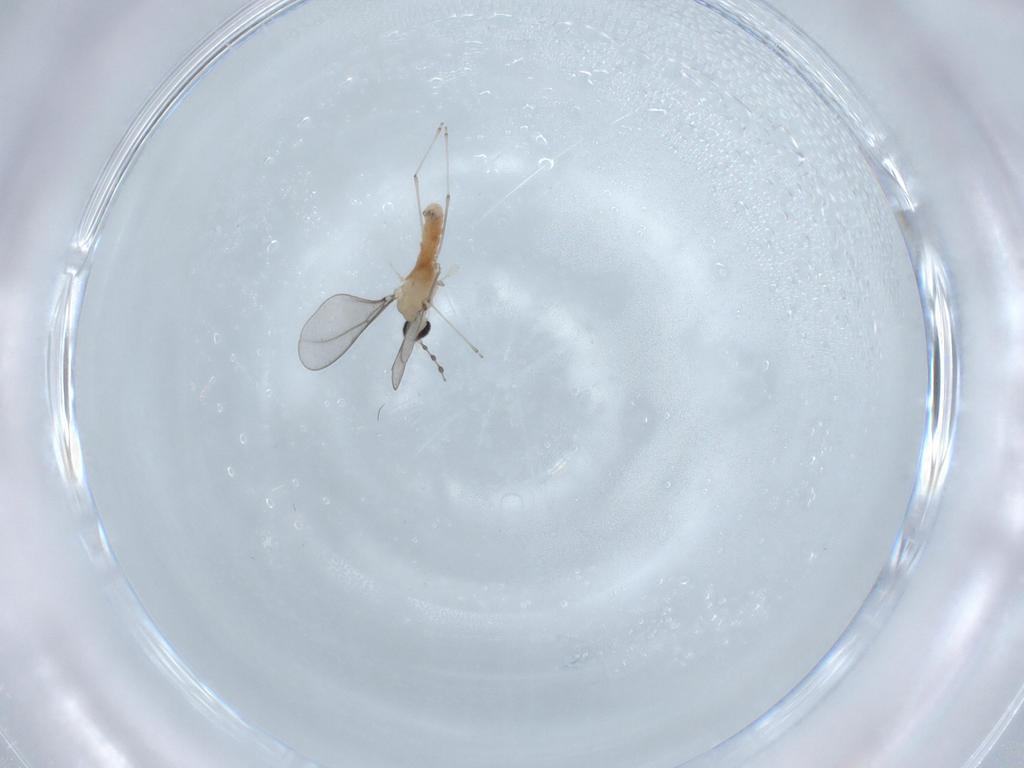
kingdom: Animalia
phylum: Arthropoda
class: Insecta
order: Diptera
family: Cecidomyiidae
